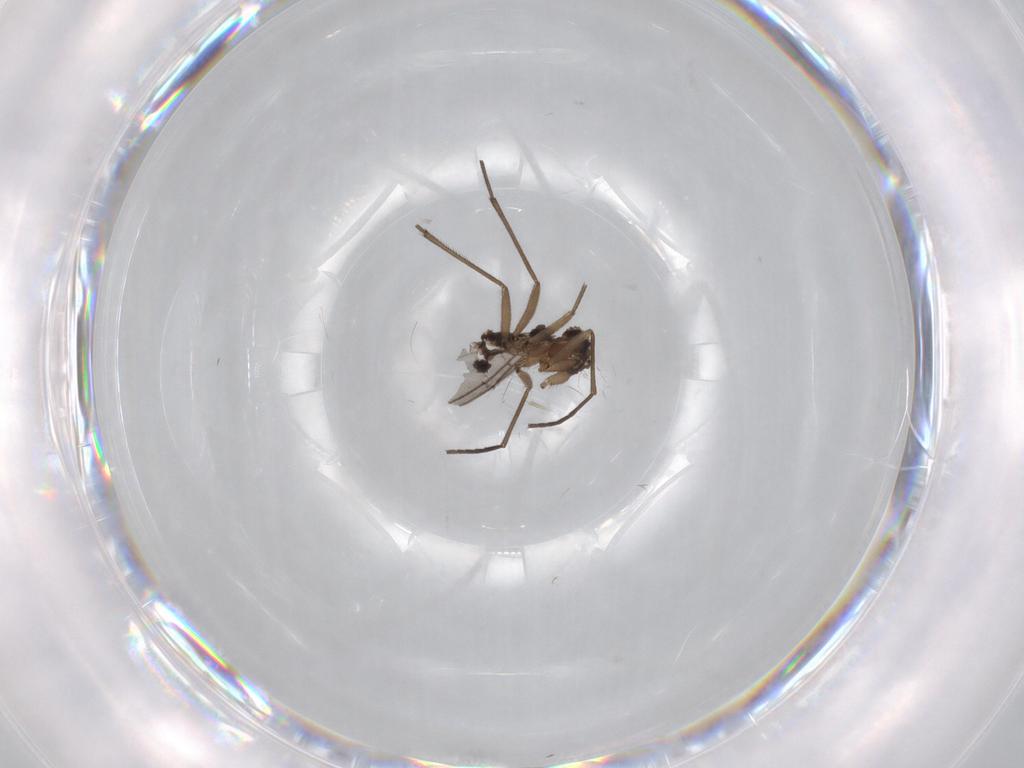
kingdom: Animalia
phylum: Arthropoda
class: Insecta
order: Diptera
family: Sciaridae
